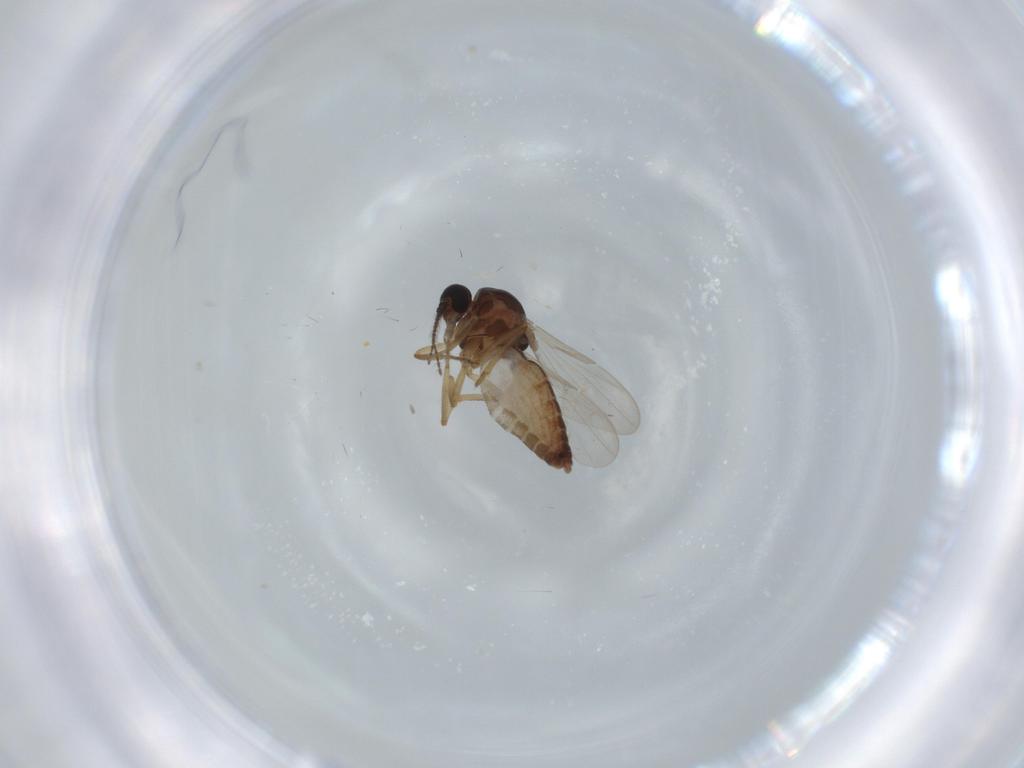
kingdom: Animalia
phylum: Arthropoda
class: Insecta
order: Diptera
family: Ceratopogonidae
